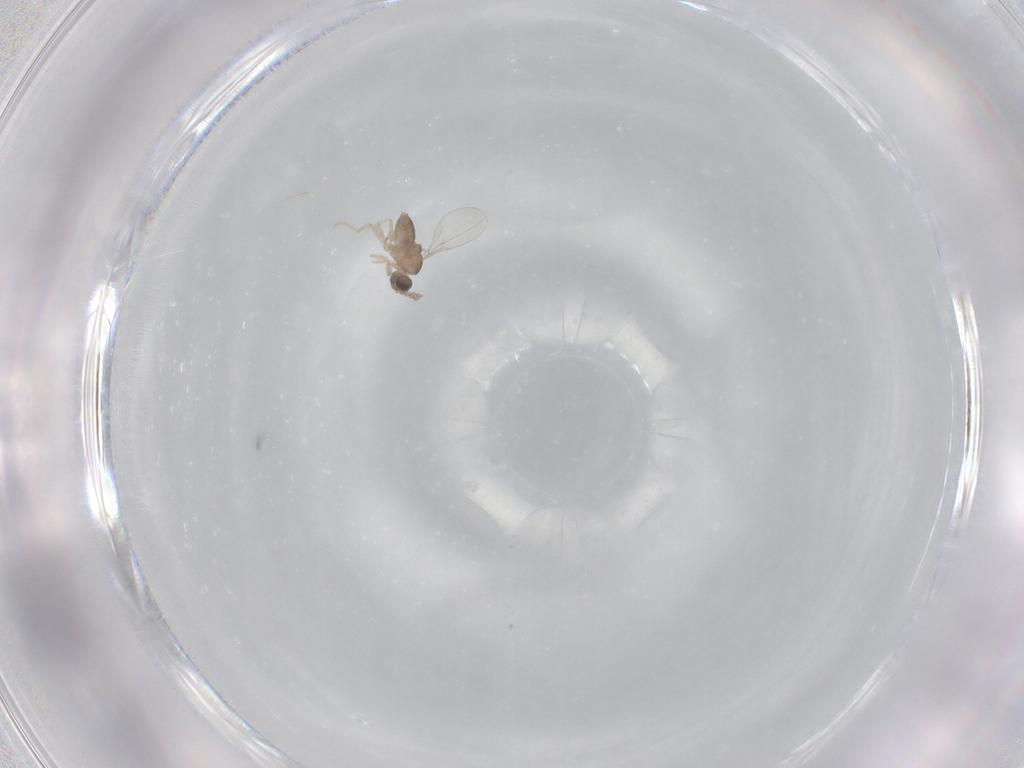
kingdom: Animalia
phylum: Arthropoda
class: Insecta
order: Diptera
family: Cecidomyiidae
